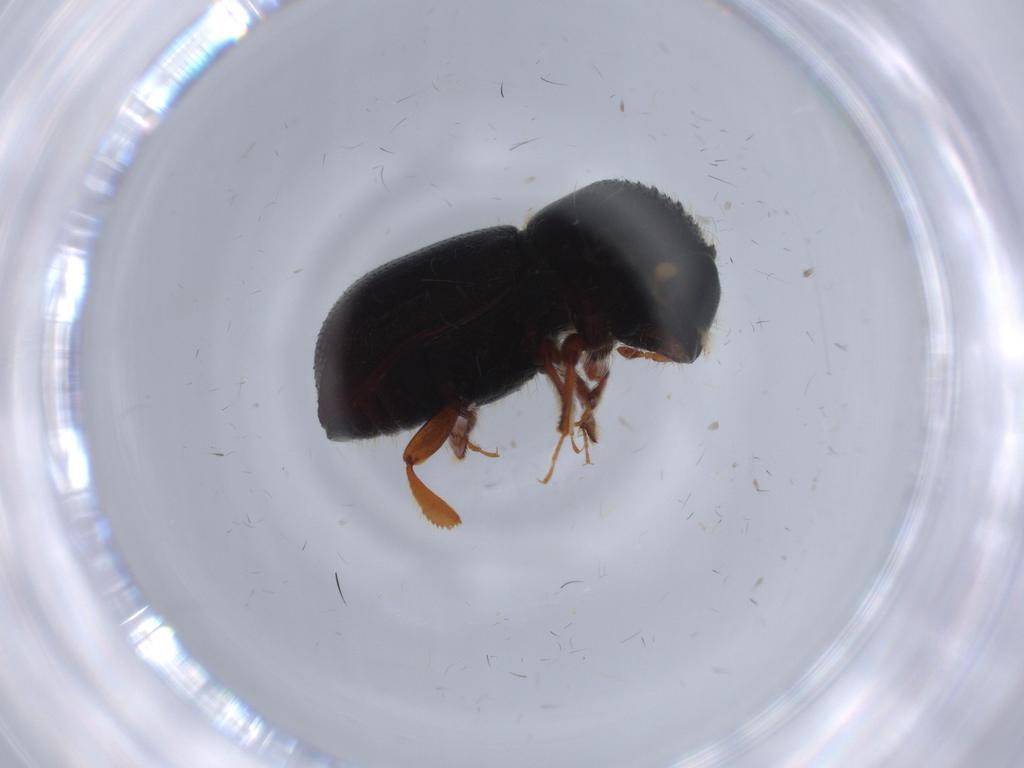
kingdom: Animalia
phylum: Arthropoda
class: Insecta
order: Coleoptera
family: Curculionidae
